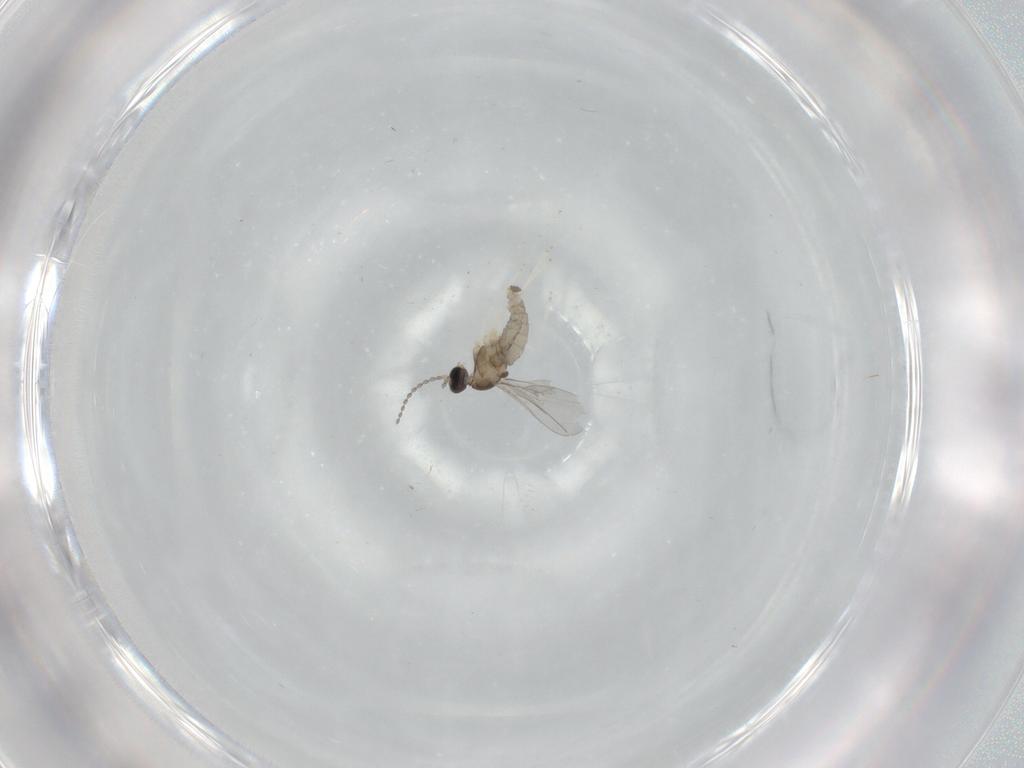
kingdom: Animalia
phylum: Arthropoda
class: Insecta
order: Diptera
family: Cecidomyiidae
